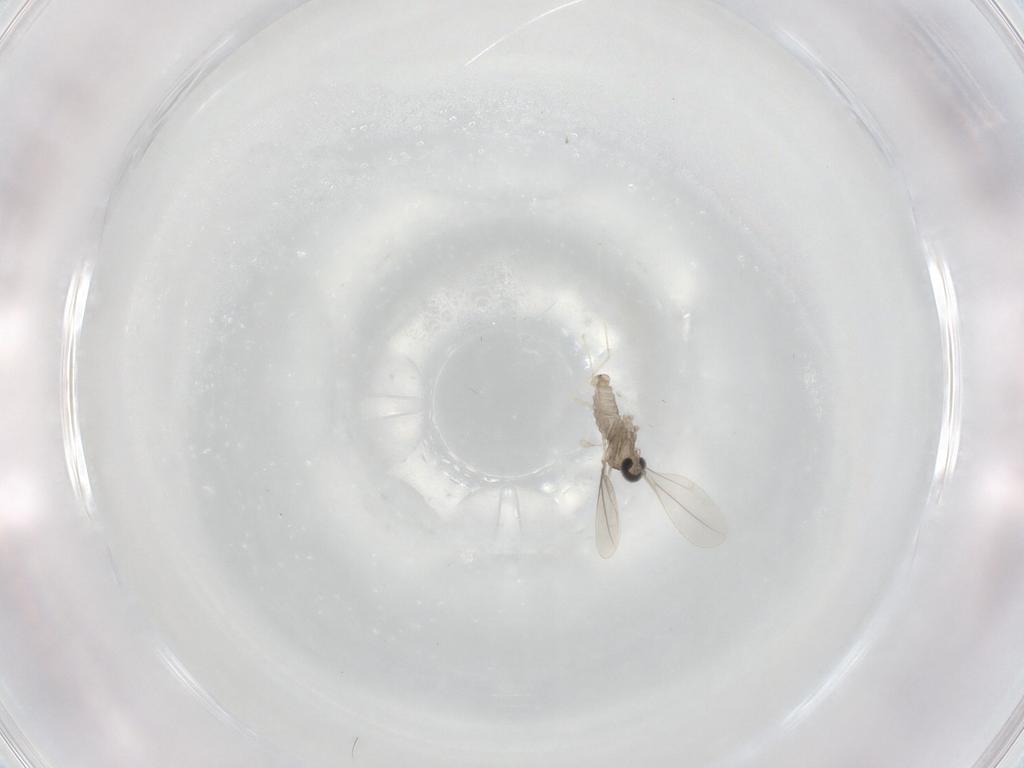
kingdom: Animalia
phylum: Arthropoda
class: Insecta
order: Diptera
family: Cecidomyiidae
